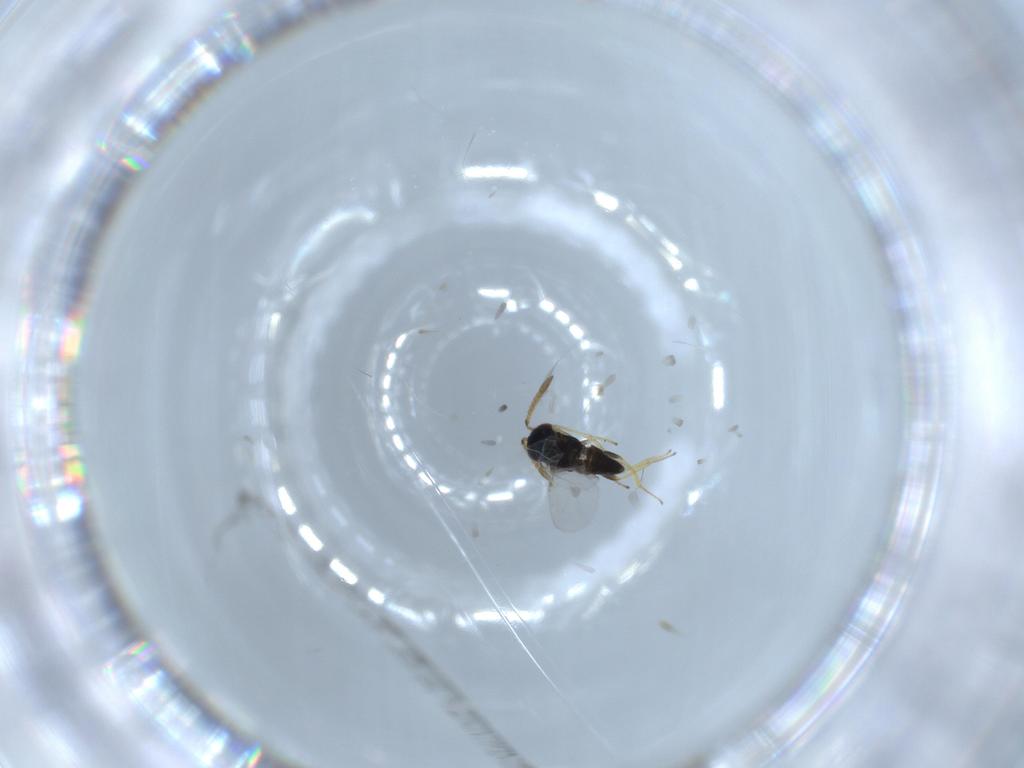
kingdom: Animalia
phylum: Arthropoda
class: Insecta
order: Hymenoptera
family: Encyrtidae
